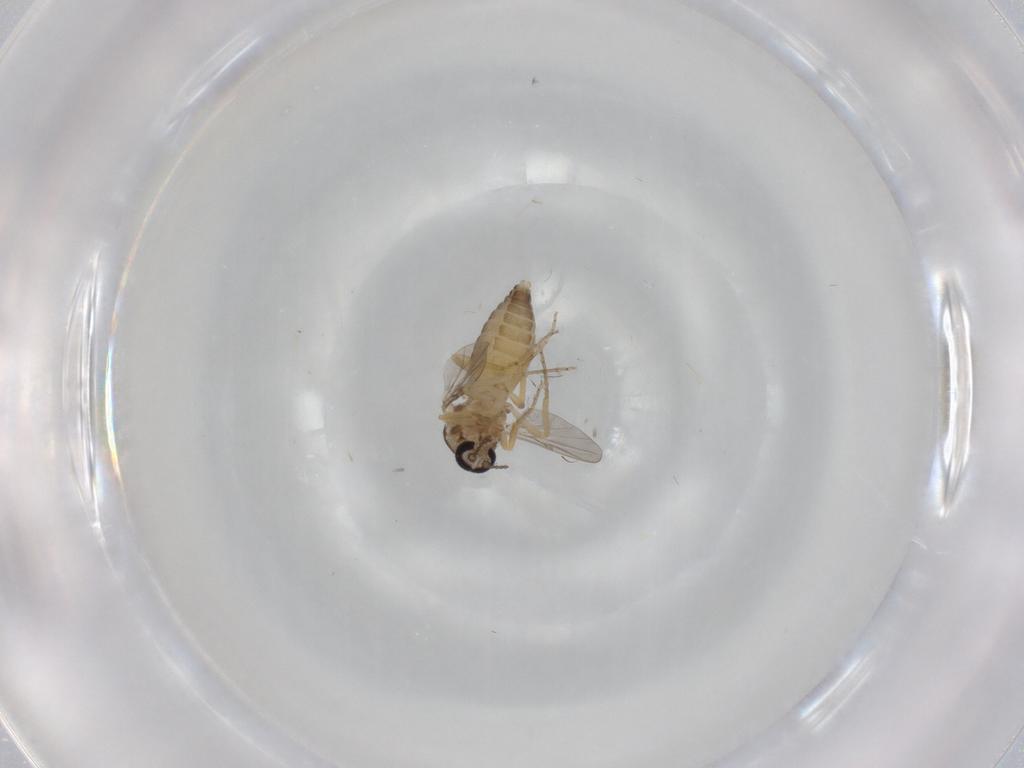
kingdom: Animalia
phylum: Arthropoda
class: Insecta
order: Diptera
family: Ceratopogonidae
